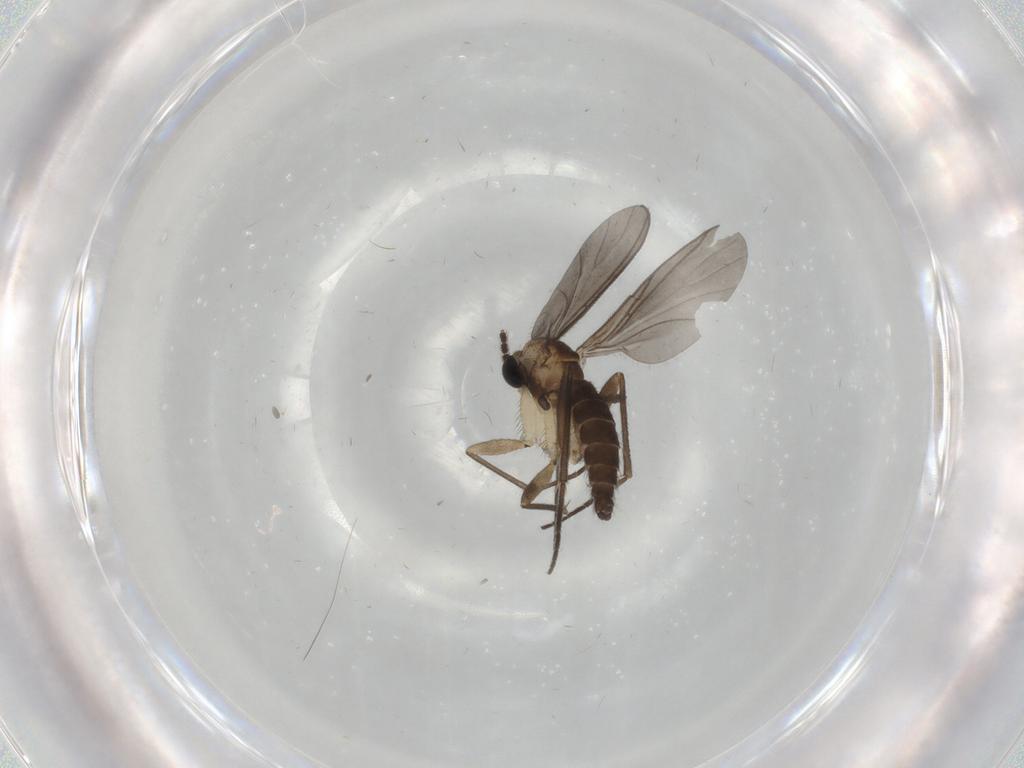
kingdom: Animalia
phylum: Arthropoda
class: Insecta
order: Diptera
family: Sciaridae
